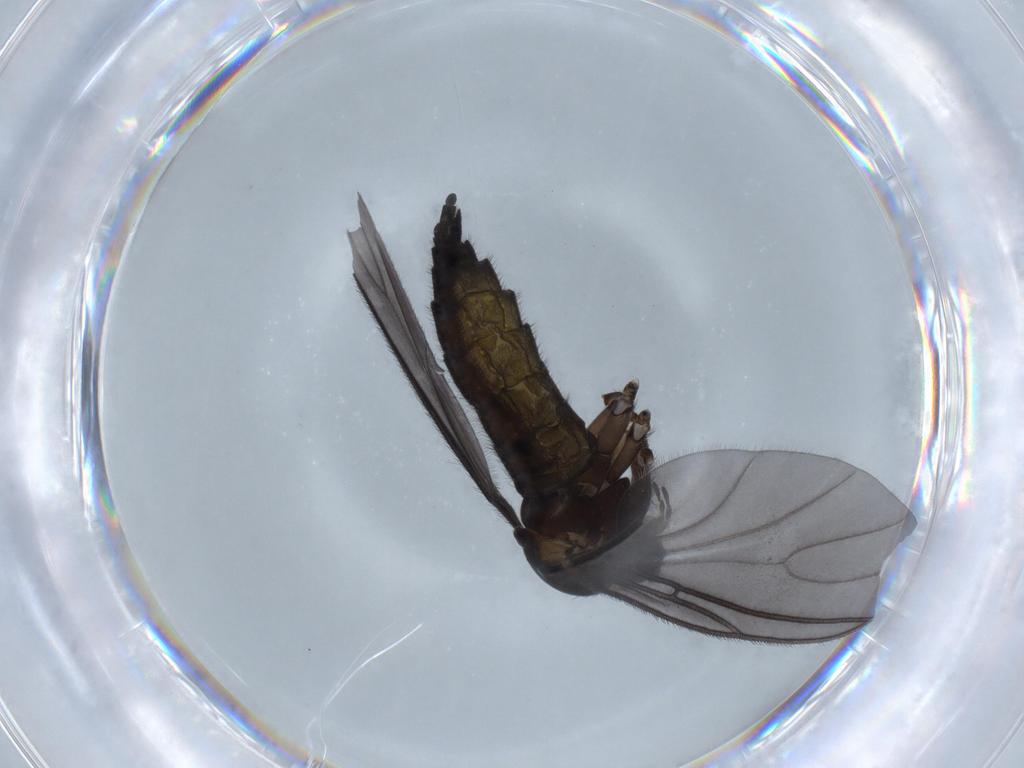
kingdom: Animalia
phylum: Arthropoda
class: Insecta
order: Diptera
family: Sciaridae
